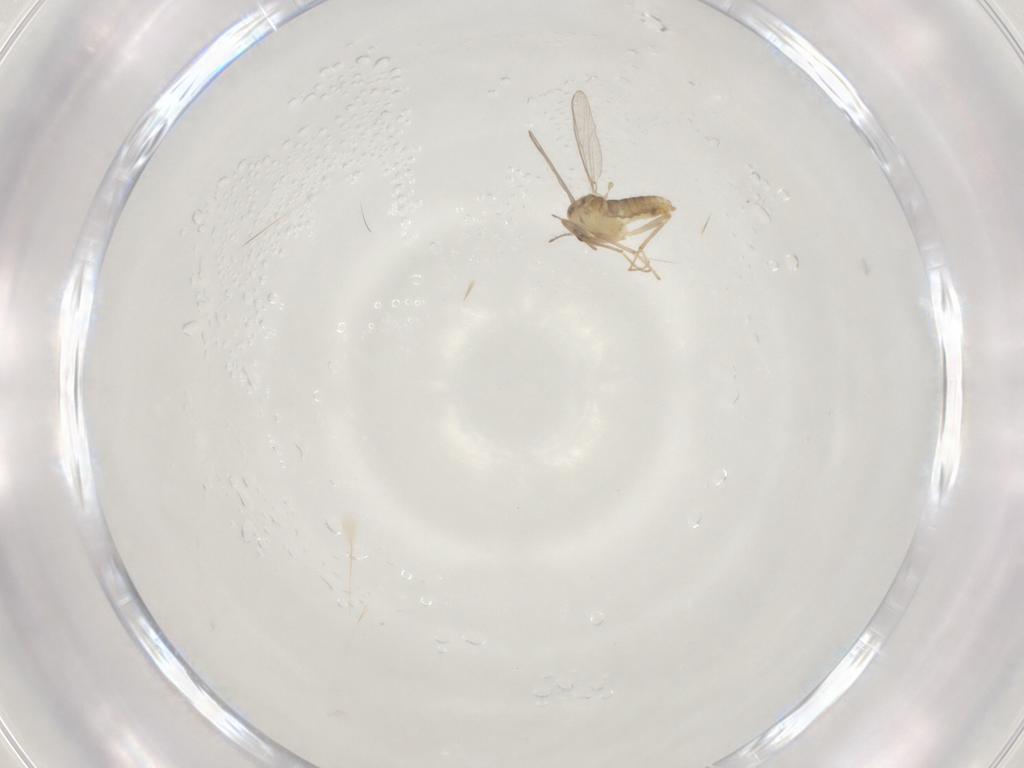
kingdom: Animalia
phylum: Arthropoda
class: Insecta
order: Diptera
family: Chironomidae
